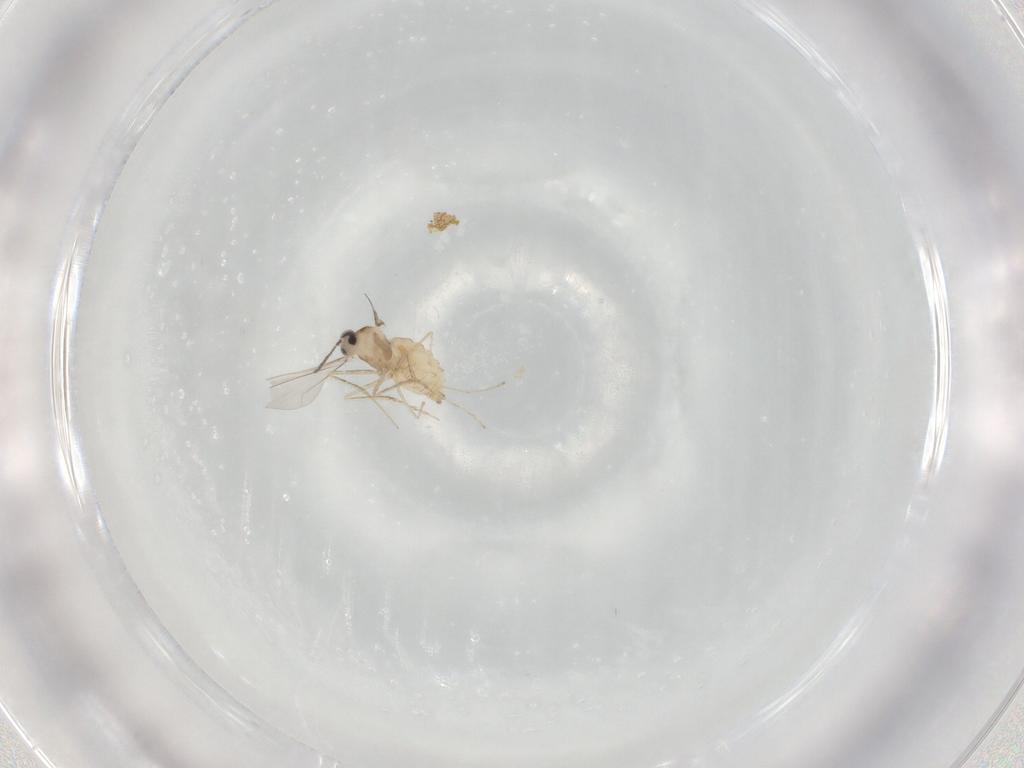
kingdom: Animalia
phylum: Arthropoda
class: Insecta
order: Diptera
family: Cecidomyiidae
